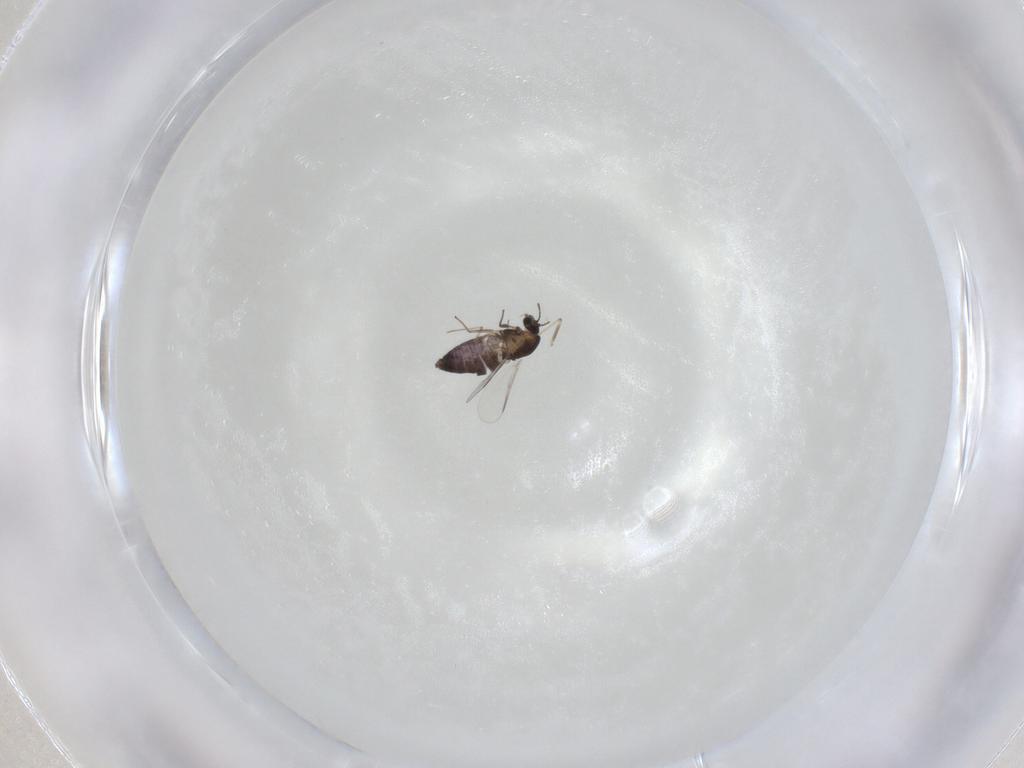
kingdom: Animalia
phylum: Arthropoda
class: Insecta
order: Diptera
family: Chironomidae
